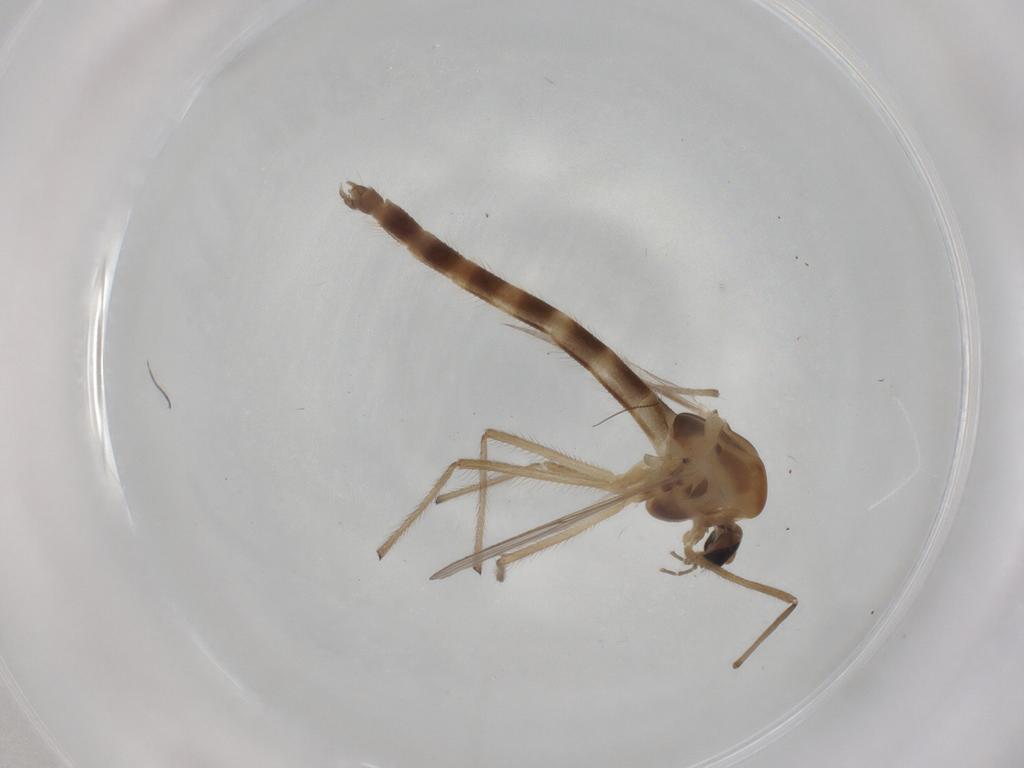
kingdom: Animalia
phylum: Arthropoda
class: Insecta
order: Diptera
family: Chironomidae
